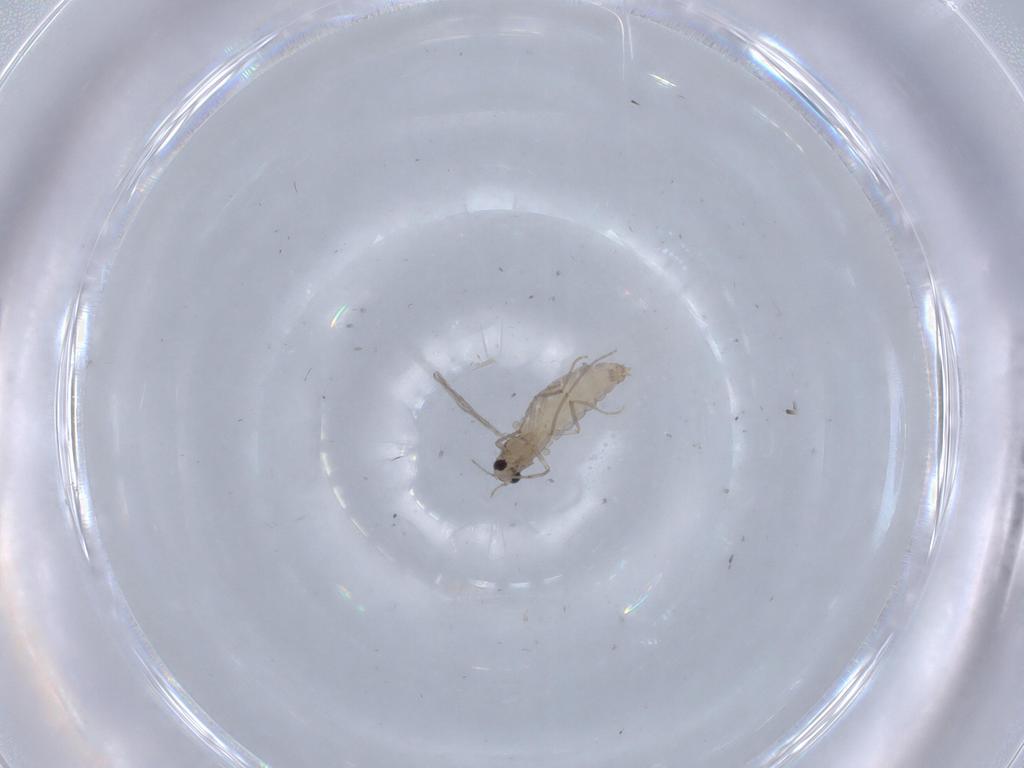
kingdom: Animalia
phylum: Arthropoda
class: Insecta
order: Diptera
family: Chironomidae
